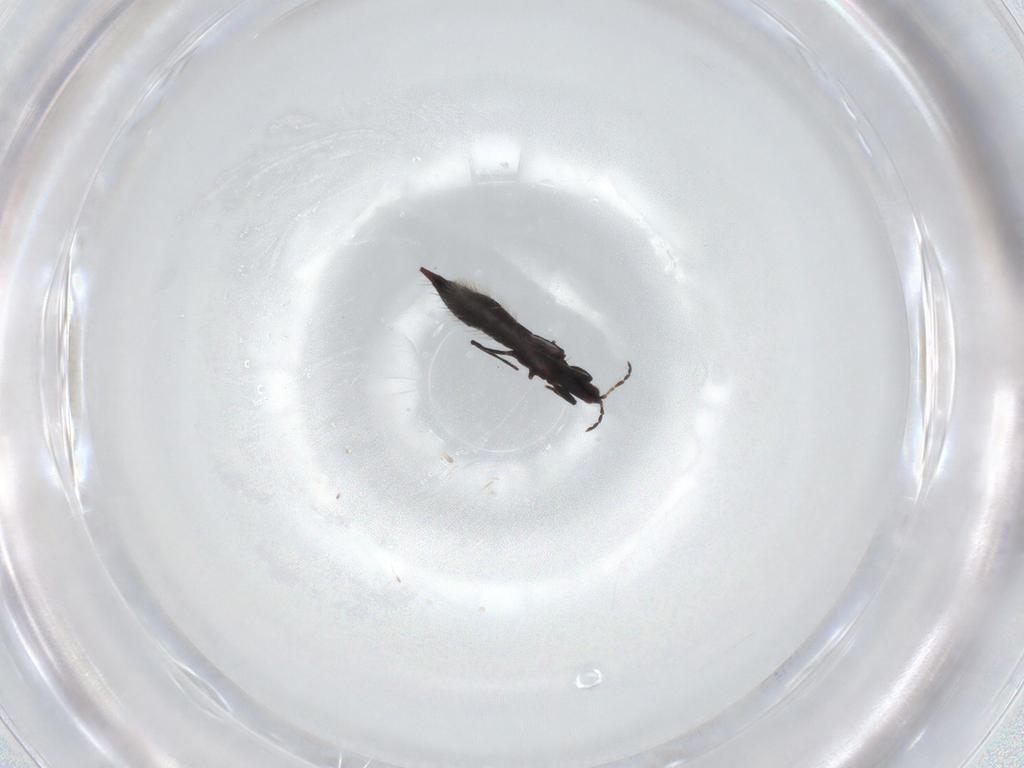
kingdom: Animalia
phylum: Arthropoda
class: Insecta
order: Thysanoptera
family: Phlaeothripidae
